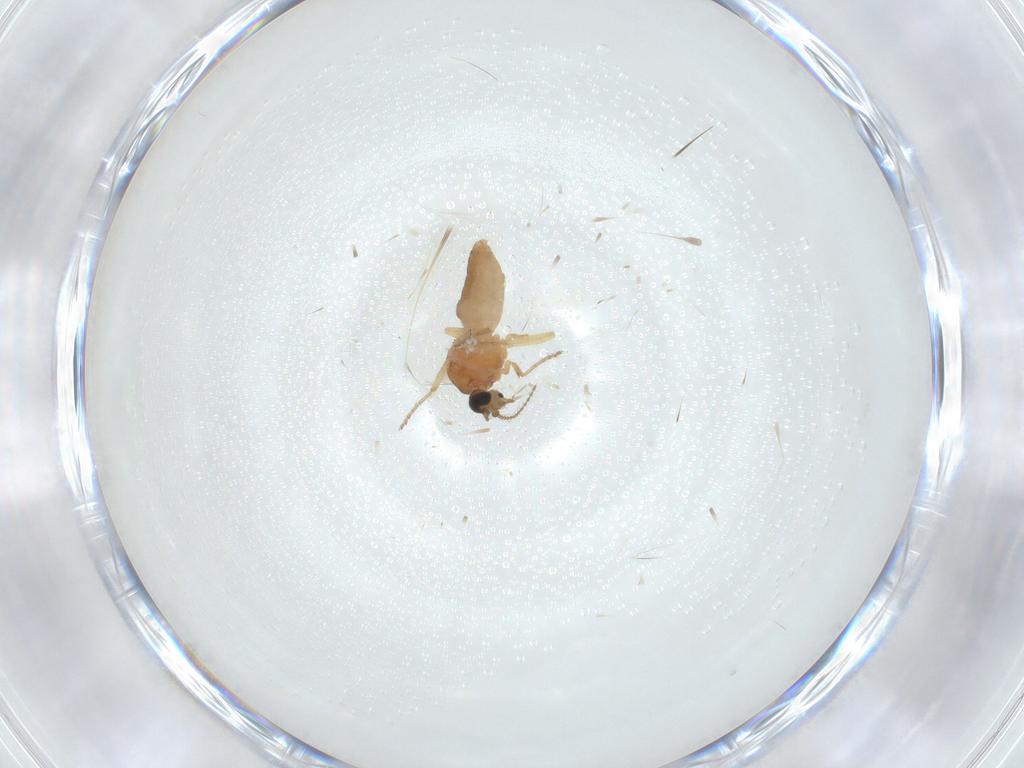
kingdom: Animalia
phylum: Arthropoda
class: Insecta
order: Diptera
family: Ceratopogonidae
